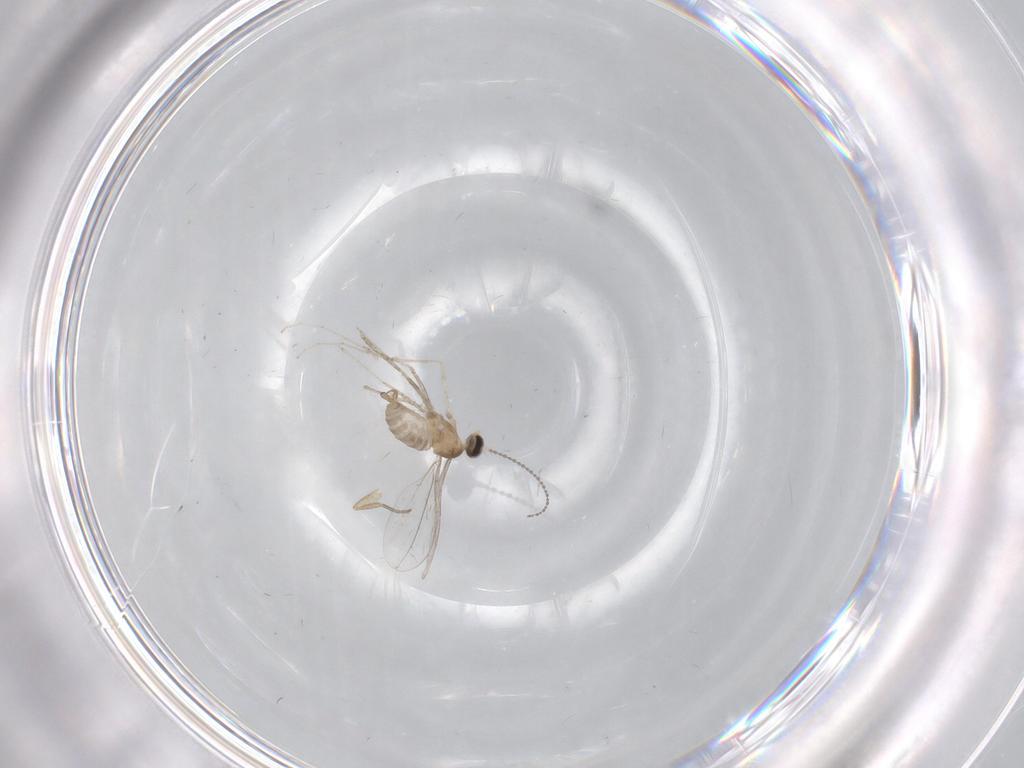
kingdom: Animalia
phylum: Arthropoda
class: Insecta
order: Diptera
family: Cecidomyiidae
